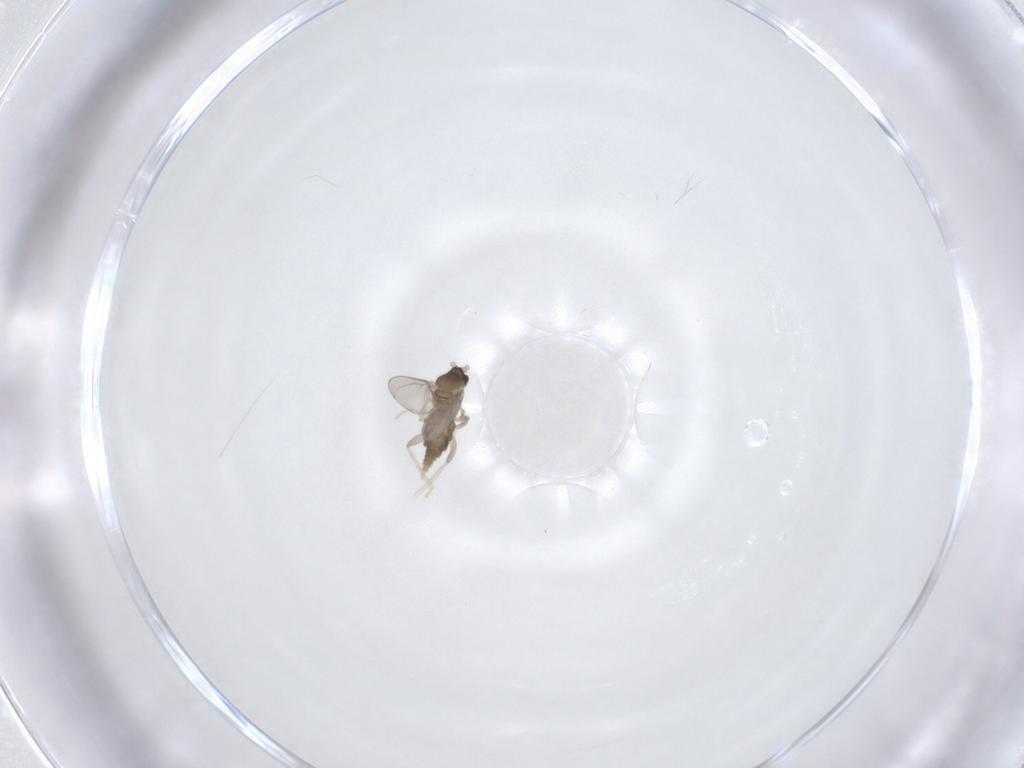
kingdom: Animalia
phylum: Arthropoda
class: Insecta
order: Diptera
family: Cecidomyiidae
